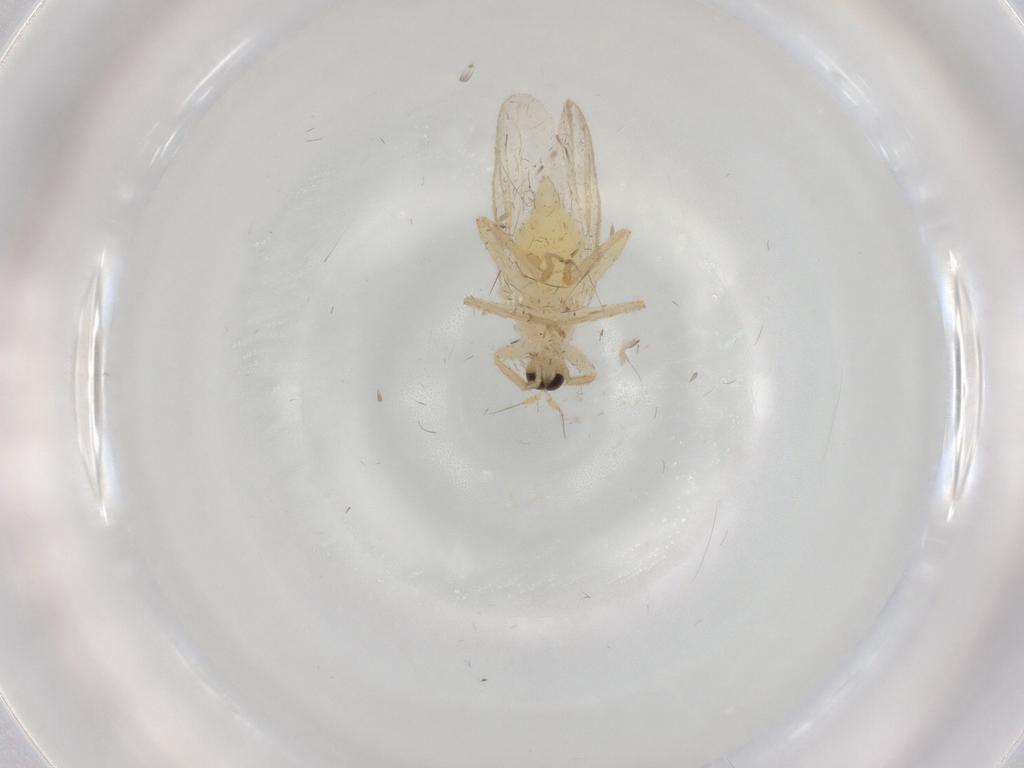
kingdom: Animalia
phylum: Arthropoda
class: Insecta
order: Diptera
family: Hybotidae
